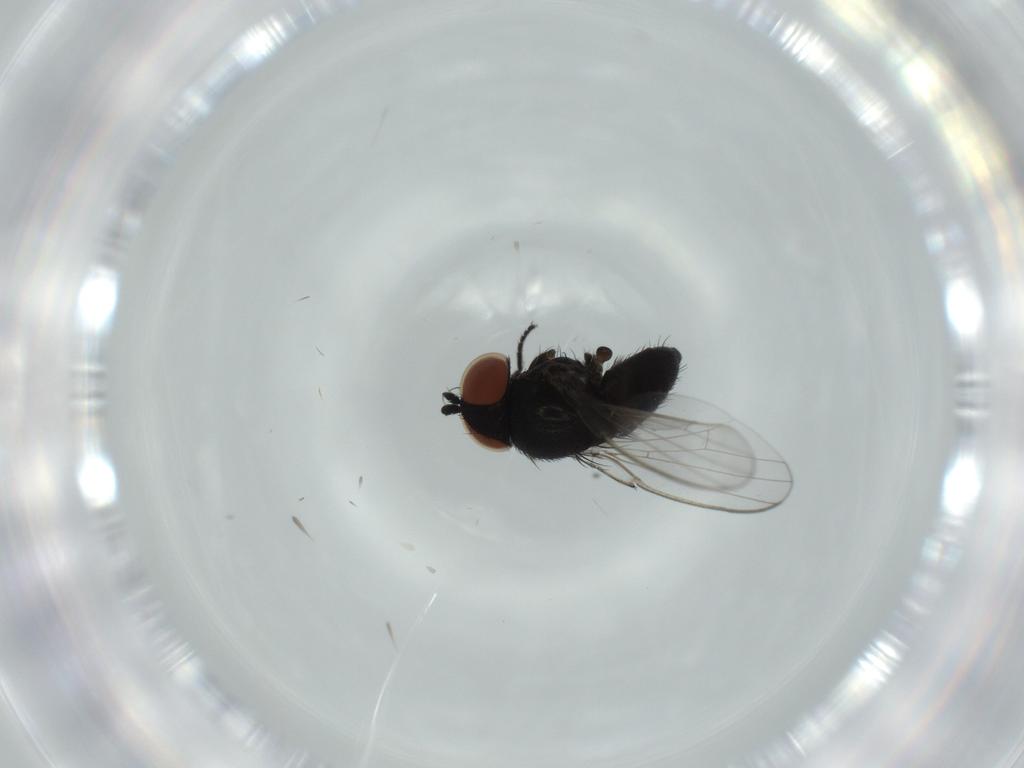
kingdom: Animalia
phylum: Arthropoda
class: Insecta
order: Diptera
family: Milichiidae
